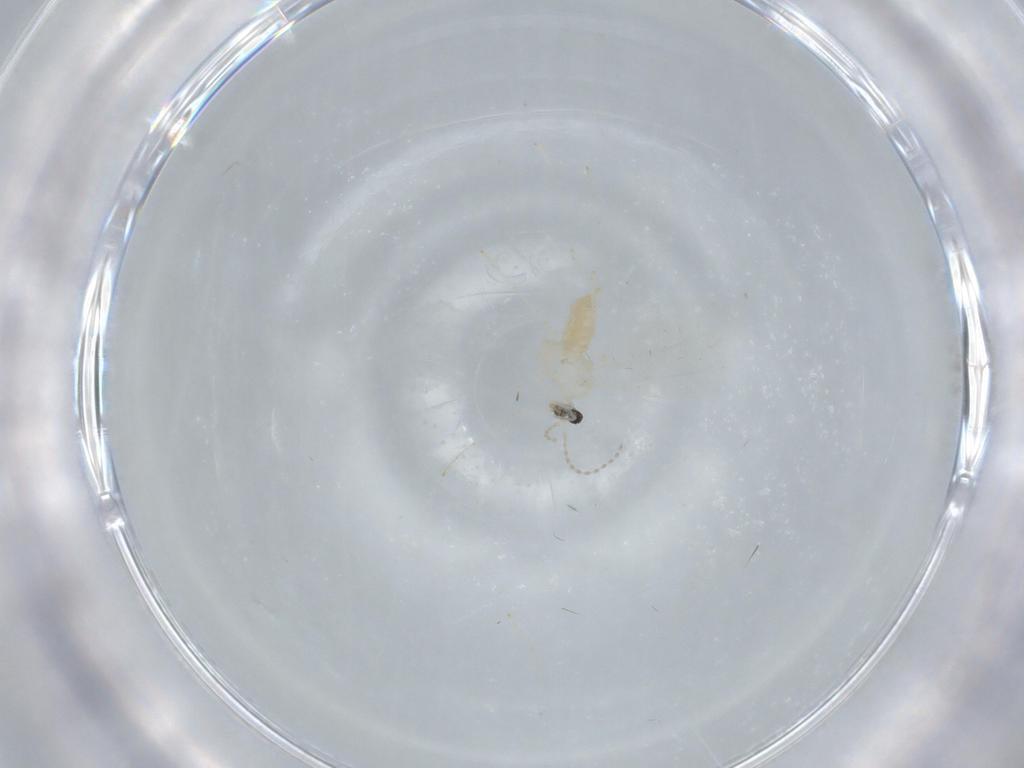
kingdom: Animalia
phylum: Arthropoda
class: Insecta
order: Diptera
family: Cecidomyiidae
